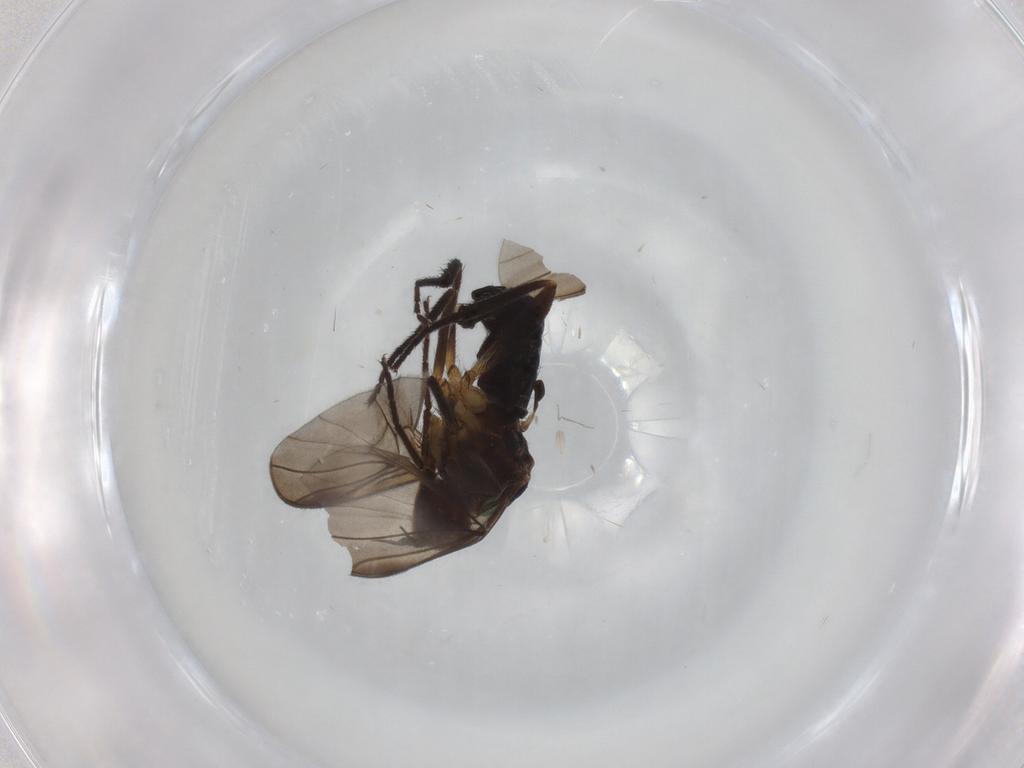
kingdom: Animalia
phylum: Arthropoda
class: Insecta
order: Diptera
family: Empididae
